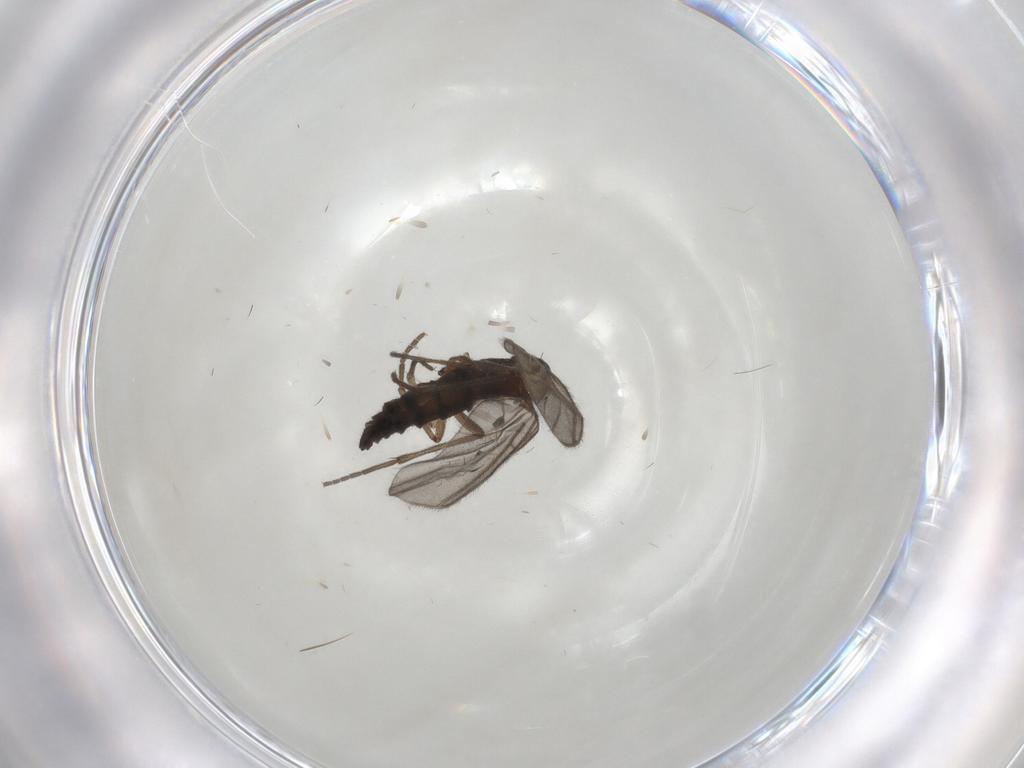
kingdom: Animalia
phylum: Arthropoda
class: Insecta
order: Diptera
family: Sciaridae
